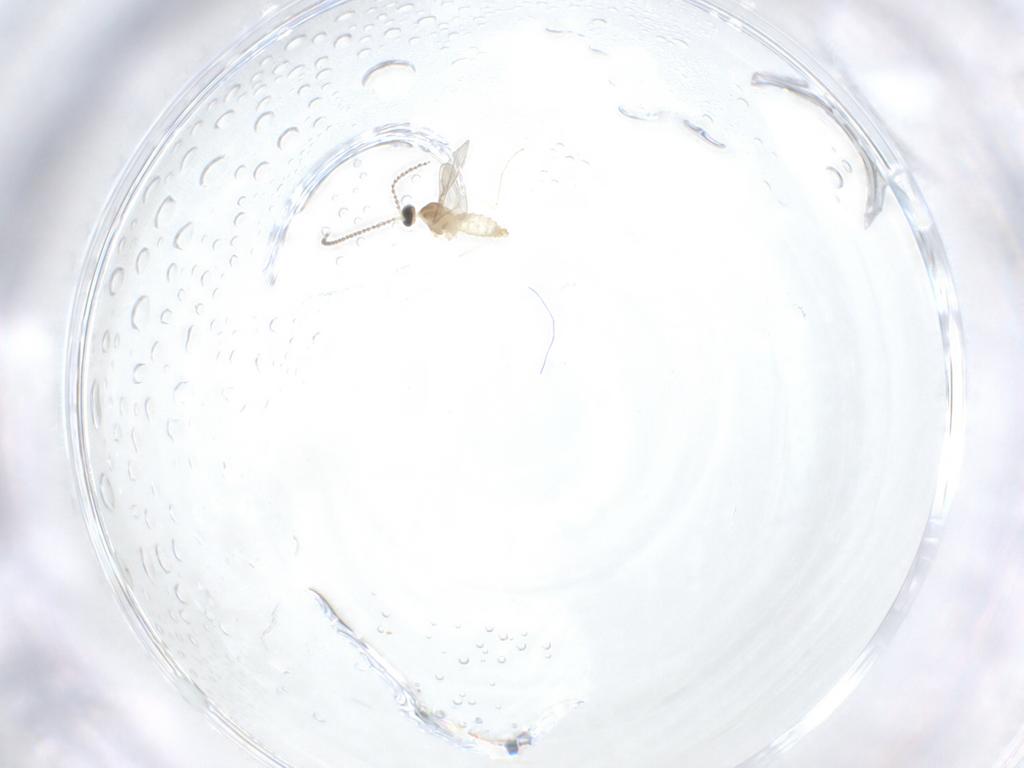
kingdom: Animalia
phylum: Arthropoda
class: Insecta
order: Diptera
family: Cecidomyiidae
